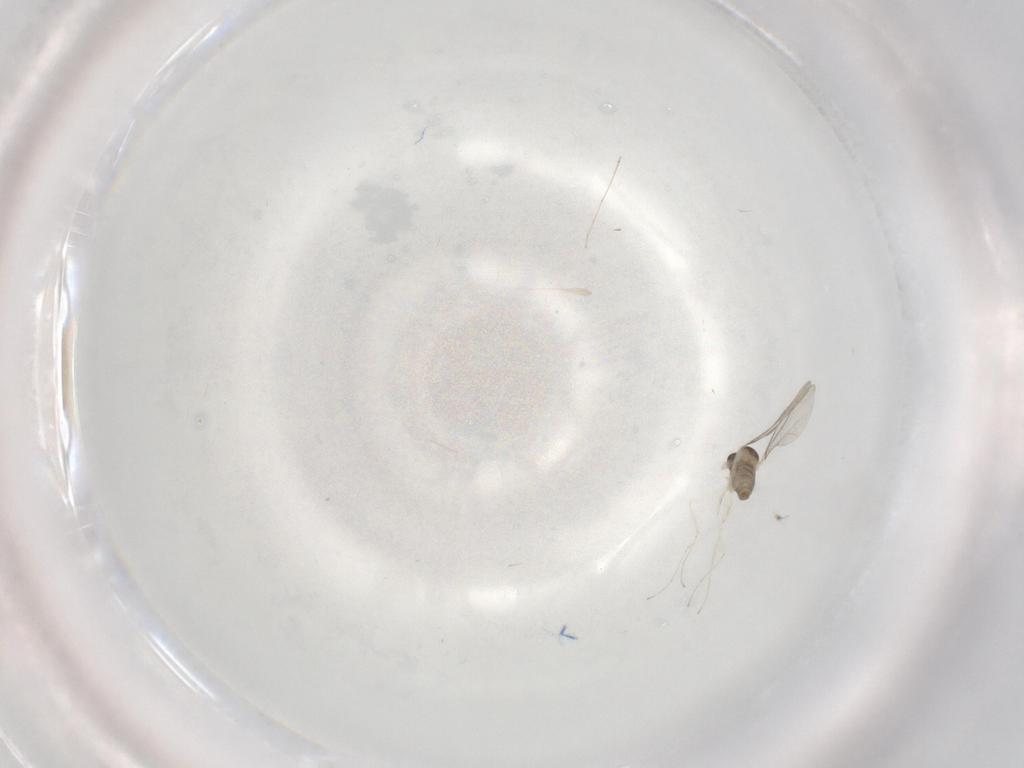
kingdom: Animalia
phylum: Arthropoda
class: Insecta
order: Diptera
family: Cecidomyiidae
